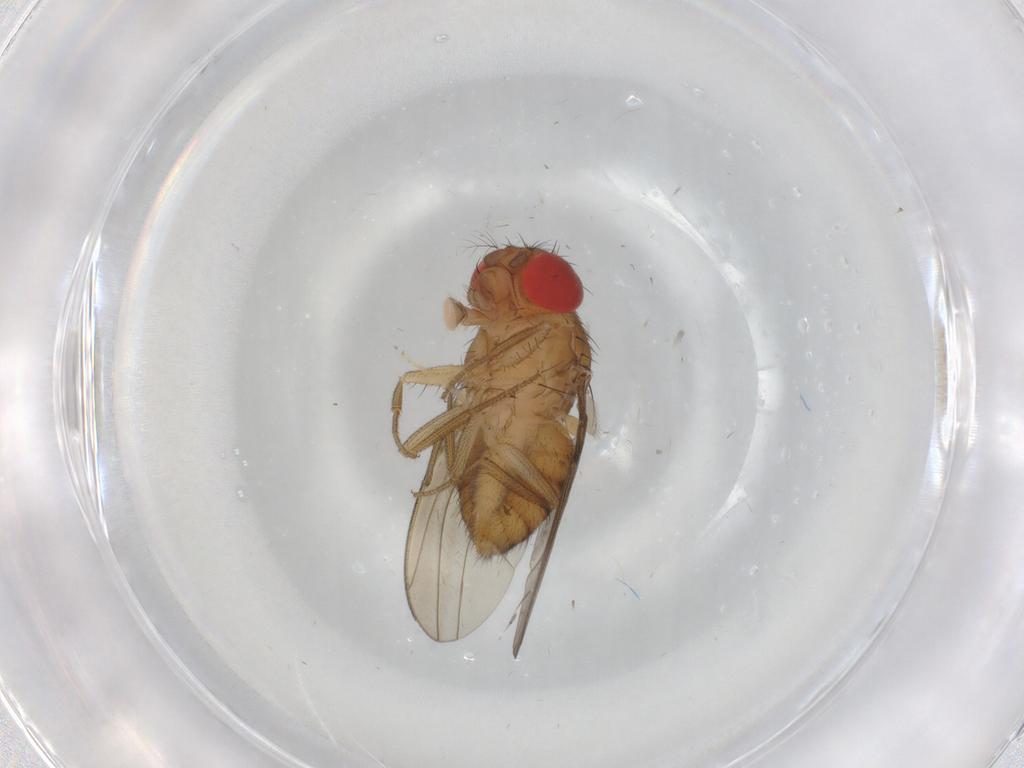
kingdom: Animalia
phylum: Arthropoda
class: Insecta
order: Diptera
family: Drosophilidae
